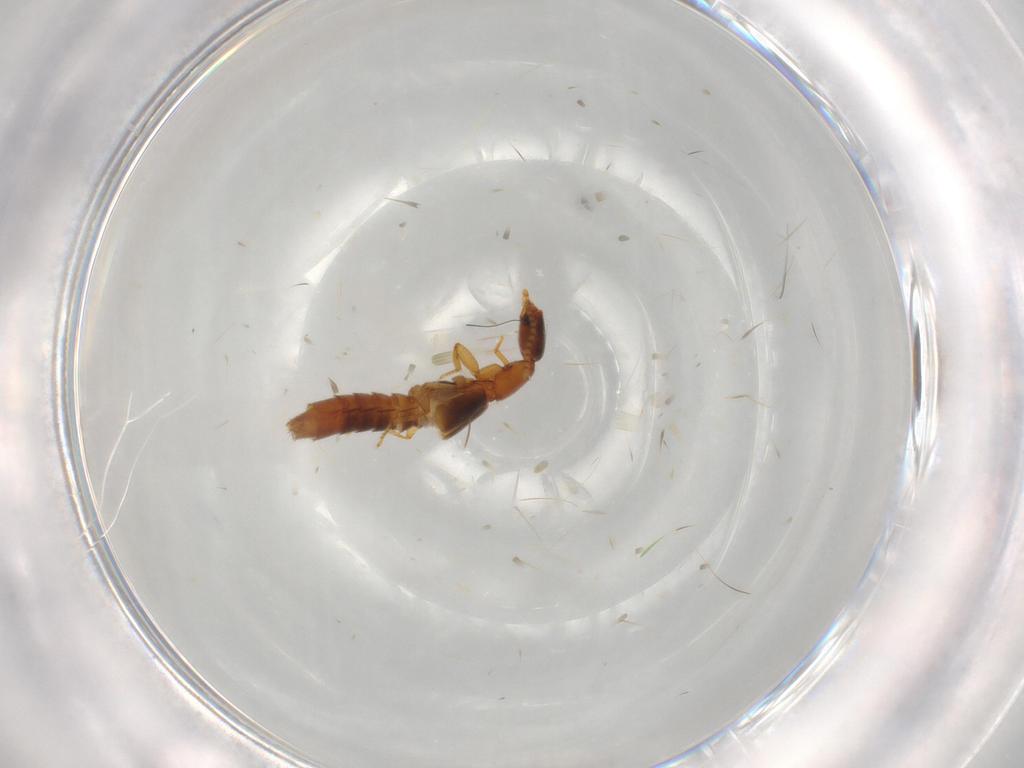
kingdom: Animalia
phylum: Arthropoda
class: Insecta
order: Coleoptera
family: Staphylinidae
